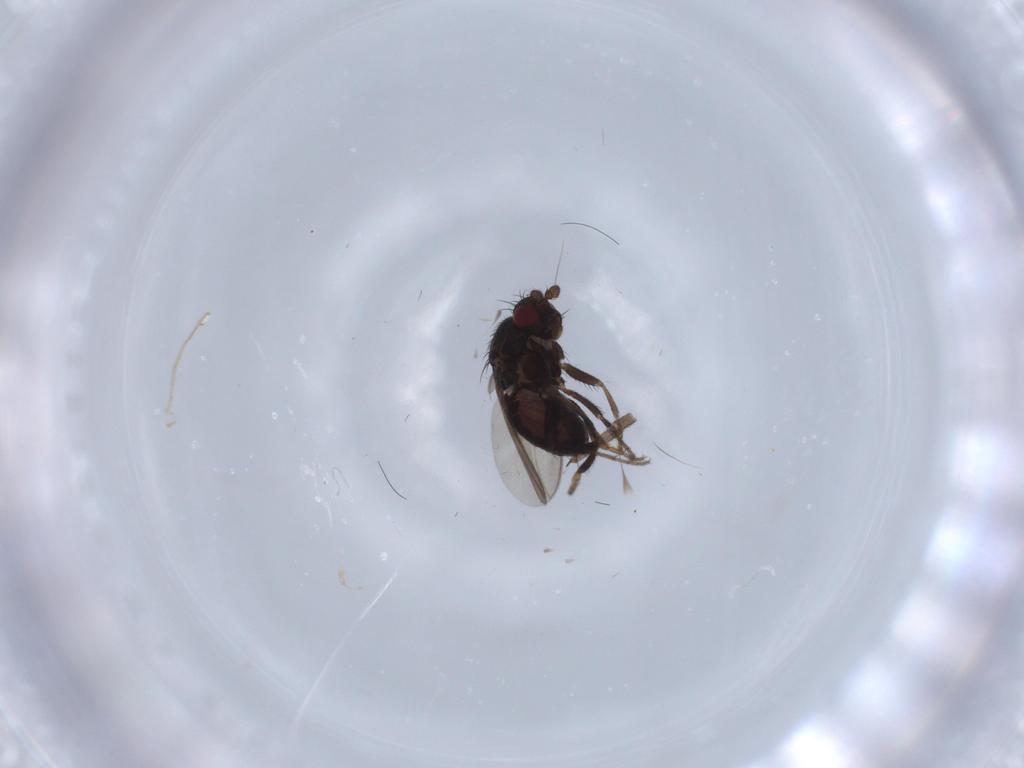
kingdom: Animalia
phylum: Arthropoda
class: Insecta
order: Diptera
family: Sphaeroceridae
